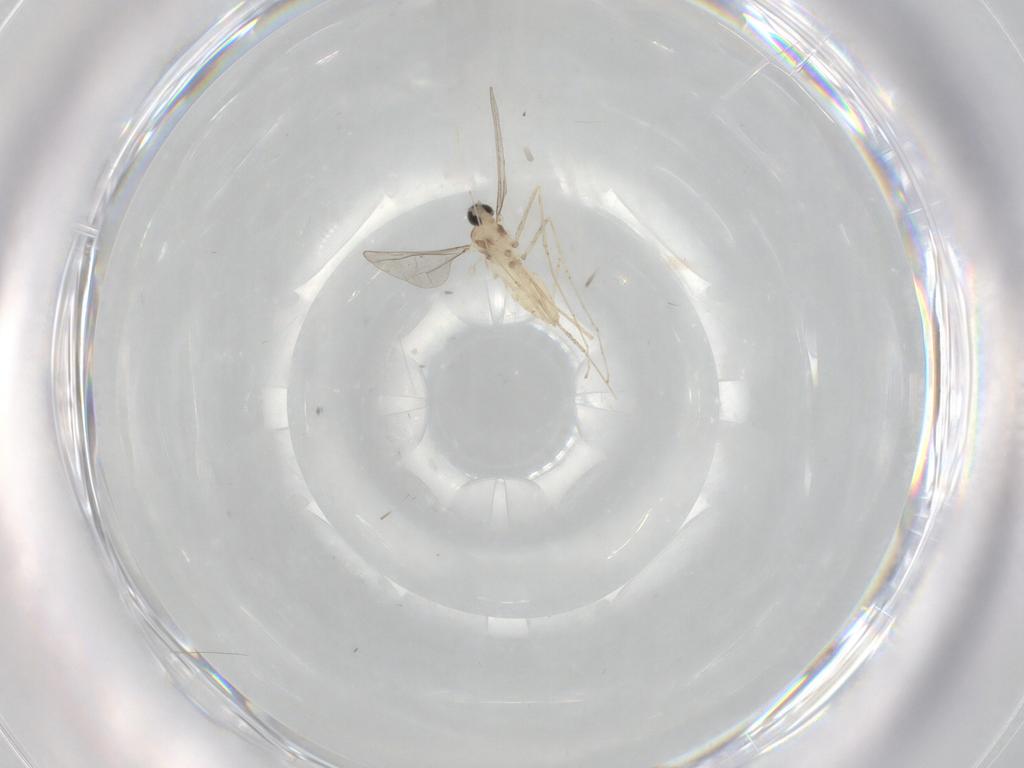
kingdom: Animalia
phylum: Arthropoda
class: Insecta
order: Diptera
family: Cecidomyiidae
